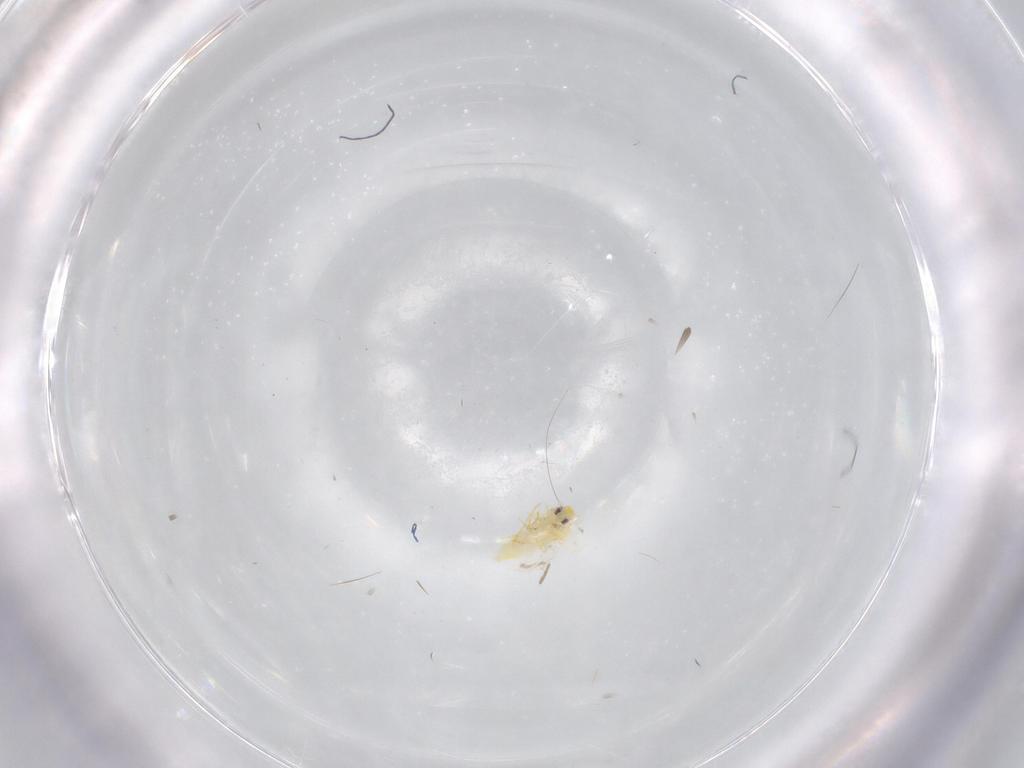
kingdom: Animalia
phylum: Arthropoda
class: Insecta
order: Hemiptera
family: Aleyrodidae
